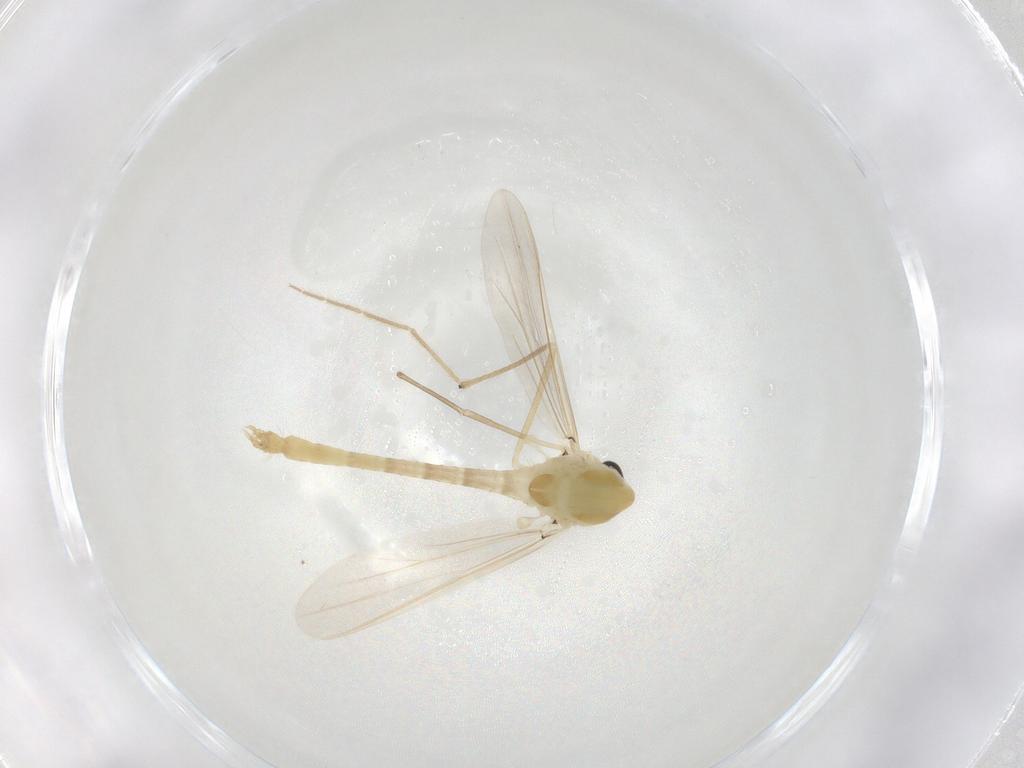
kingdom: Animalia
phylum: Arthropoda
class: Insecta
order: Diptera
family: Chironomidae
